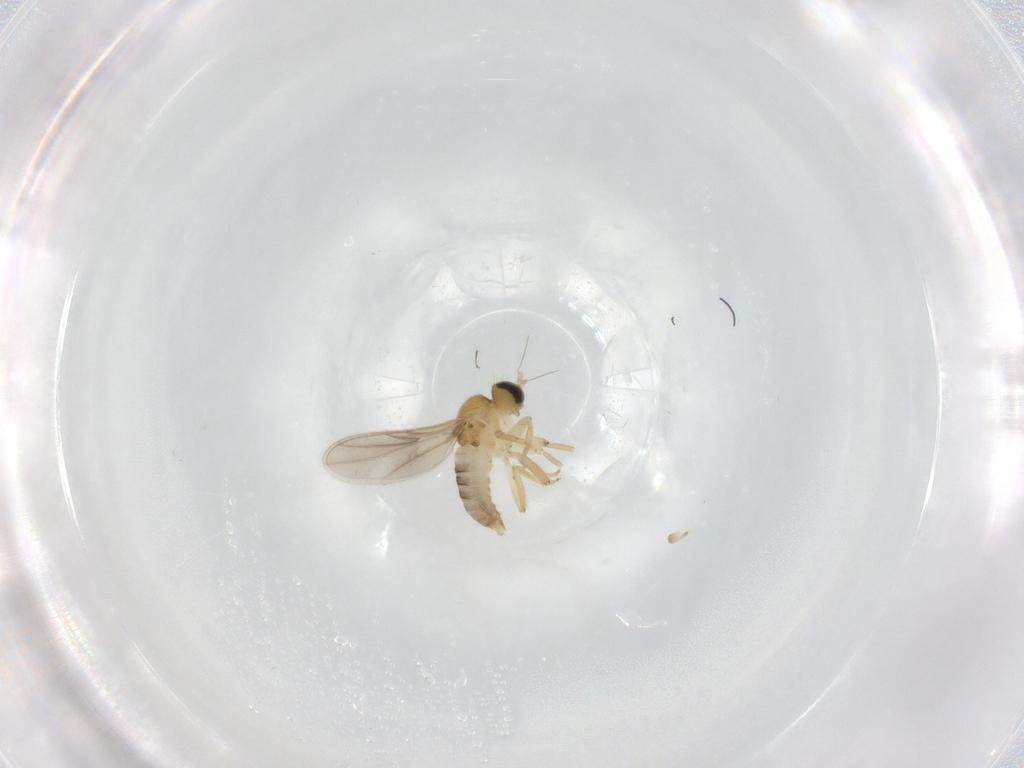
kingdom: Animalia
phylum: Arthropoda
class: Insecta
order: Diptera
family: Hybotidae
